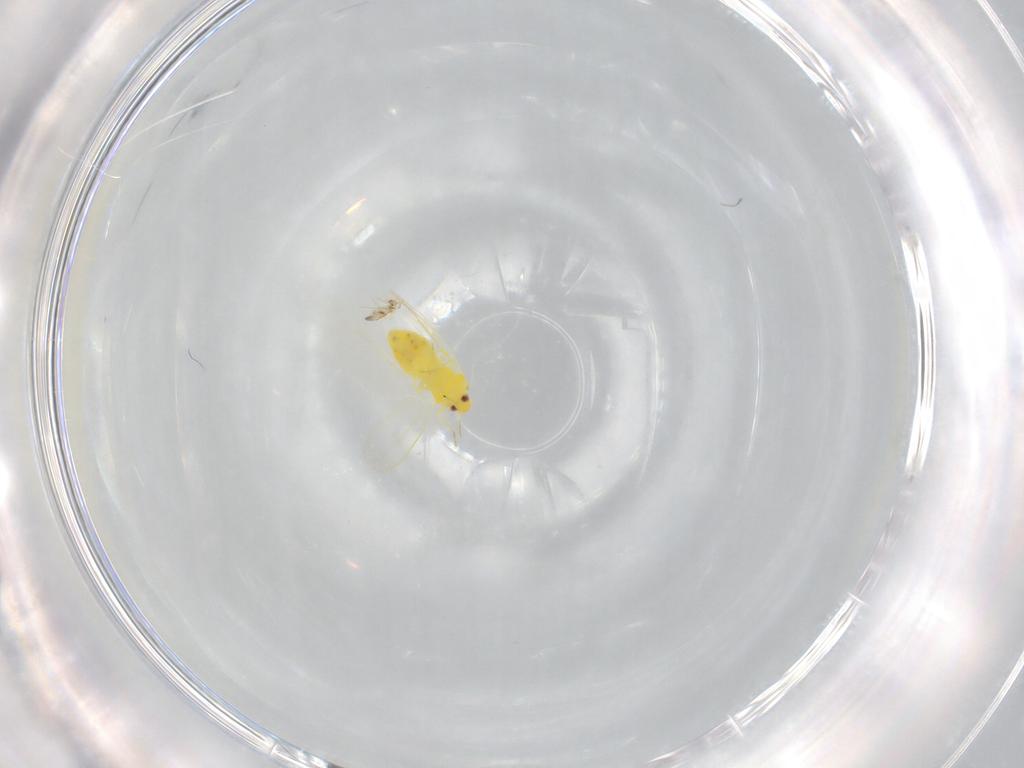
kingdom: Animalia
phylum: Arthropoda
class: Insecta
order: Hemiptera
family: Aleyrodidae
